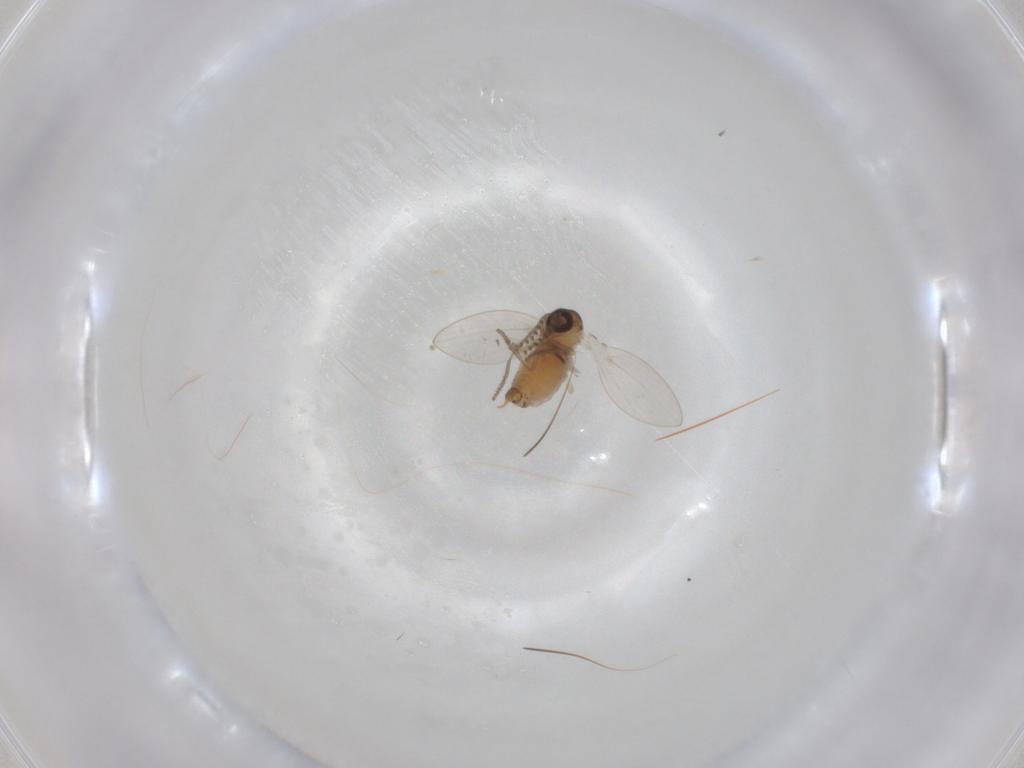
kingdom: Animalia
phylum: Arthropoda
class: Insecta
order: Diptera
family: Psychodidae
